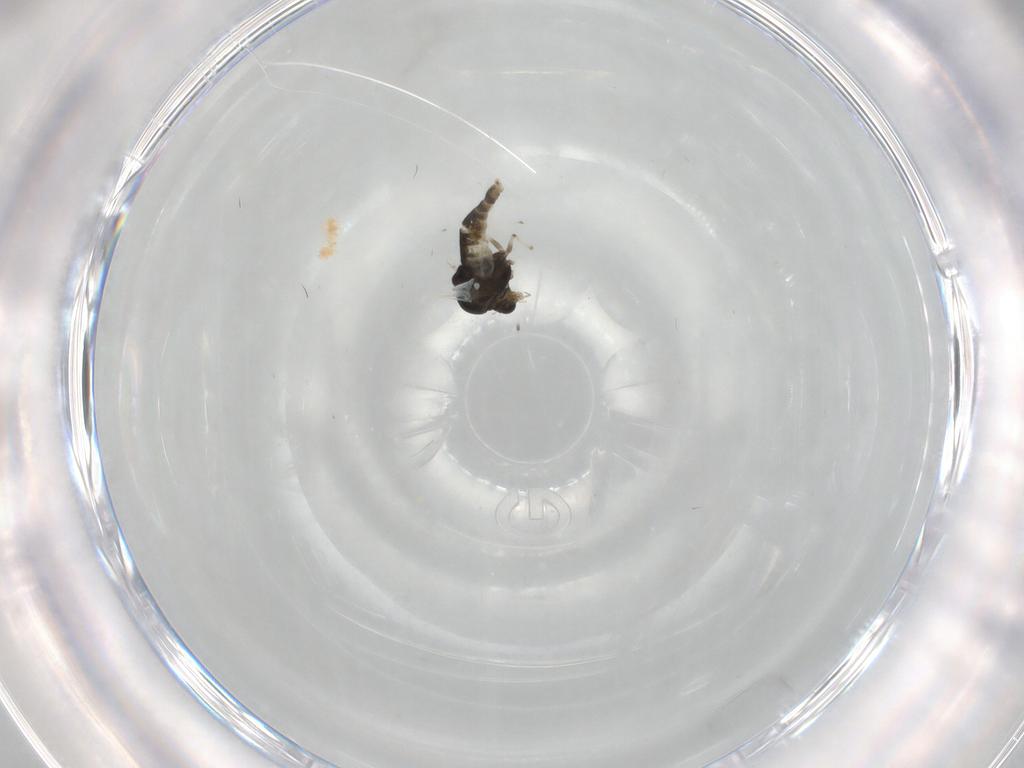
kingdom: Animalia
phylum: Arthropoda
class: Insecta
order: Diptera
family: Chironomidae
